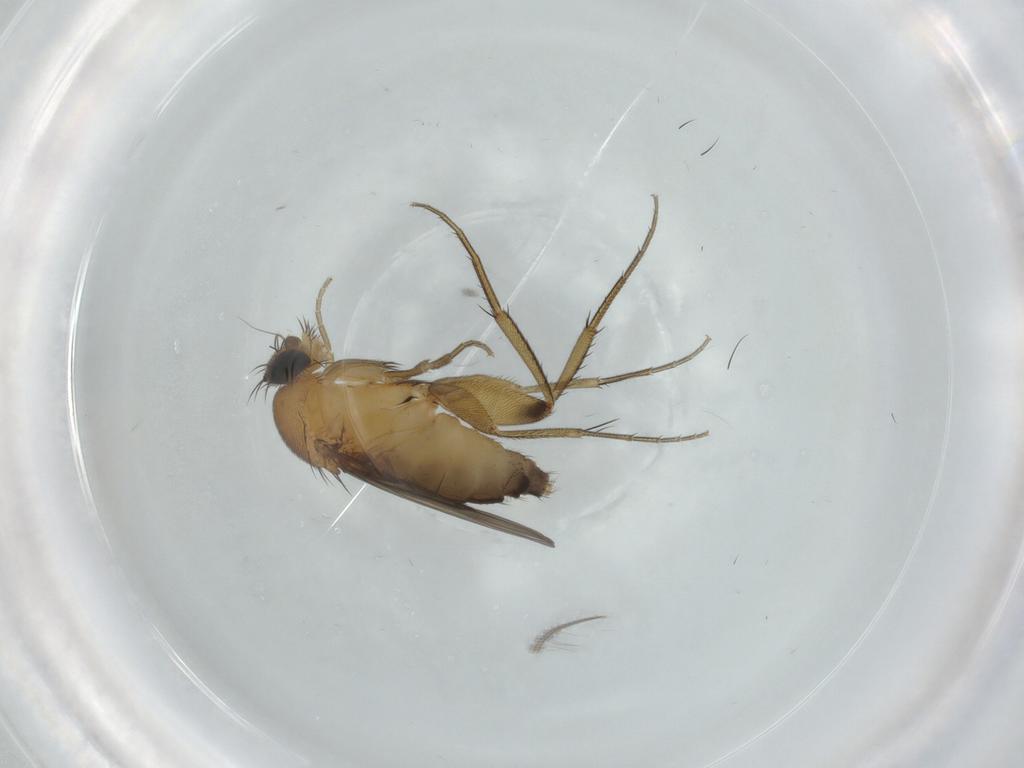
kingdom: Animalia
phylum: Arthropoda
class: Insecta
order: Diptera
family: Phoridae
